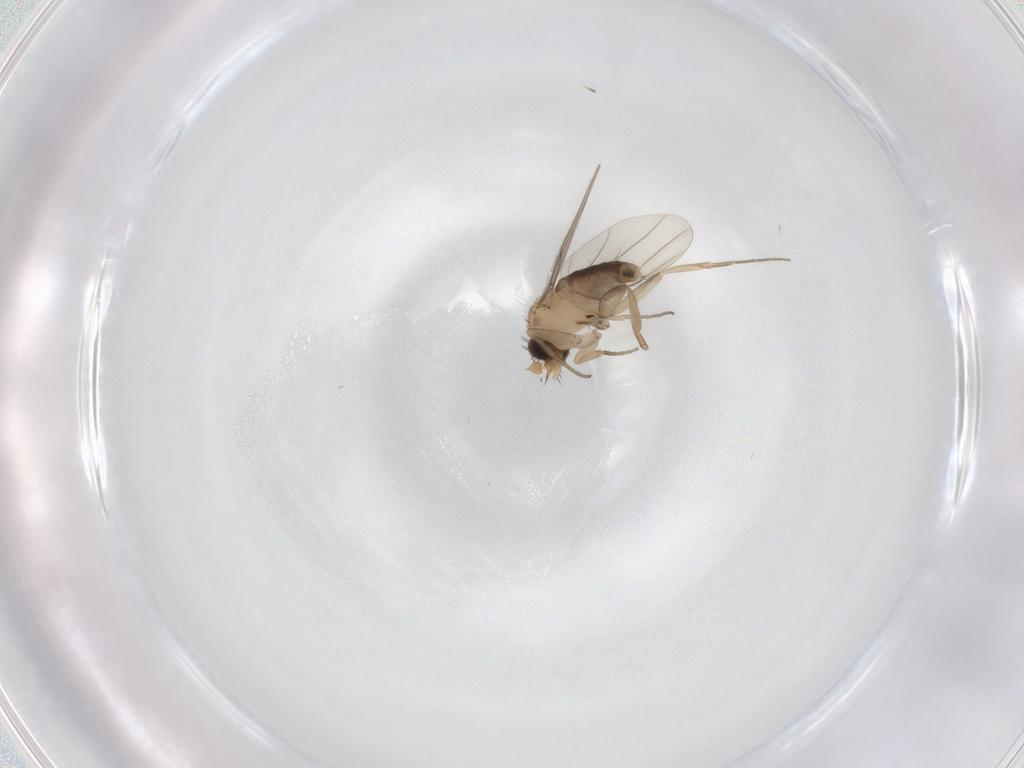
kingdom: Animalia
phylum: Arthropoda
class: Insecta
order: Diptera
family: Phoridae
